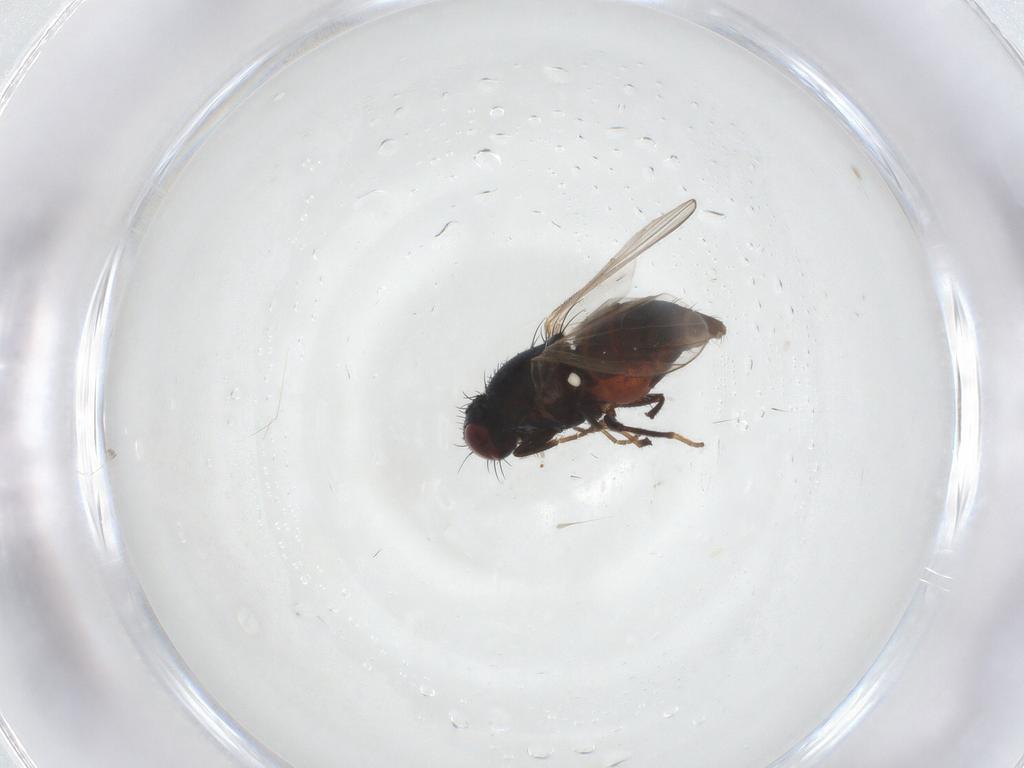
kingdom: Animalia
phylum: Arthropoda
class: Insecta
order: Diptera
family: Carnidae
